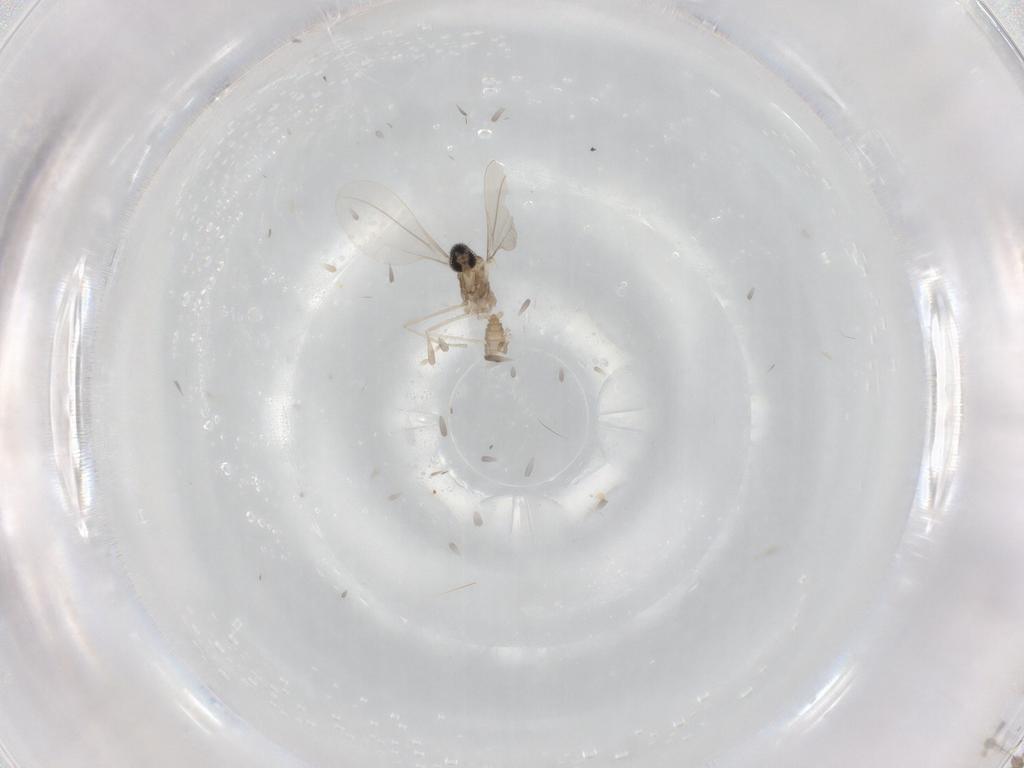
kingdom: Animalia
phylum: Arthropoda
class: Insecta
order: Diptera
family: Cecidomyiidae
